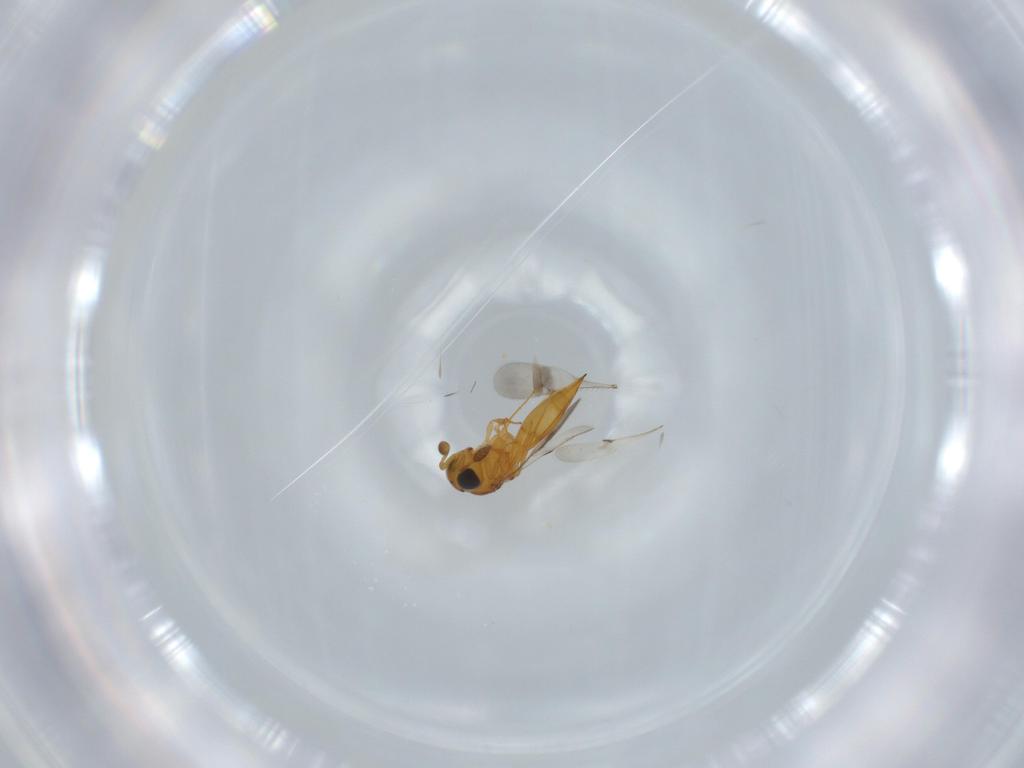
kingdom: Animalia
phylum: Arthropoda
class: Insecta
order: Hymenoptera
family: Scelionidae
